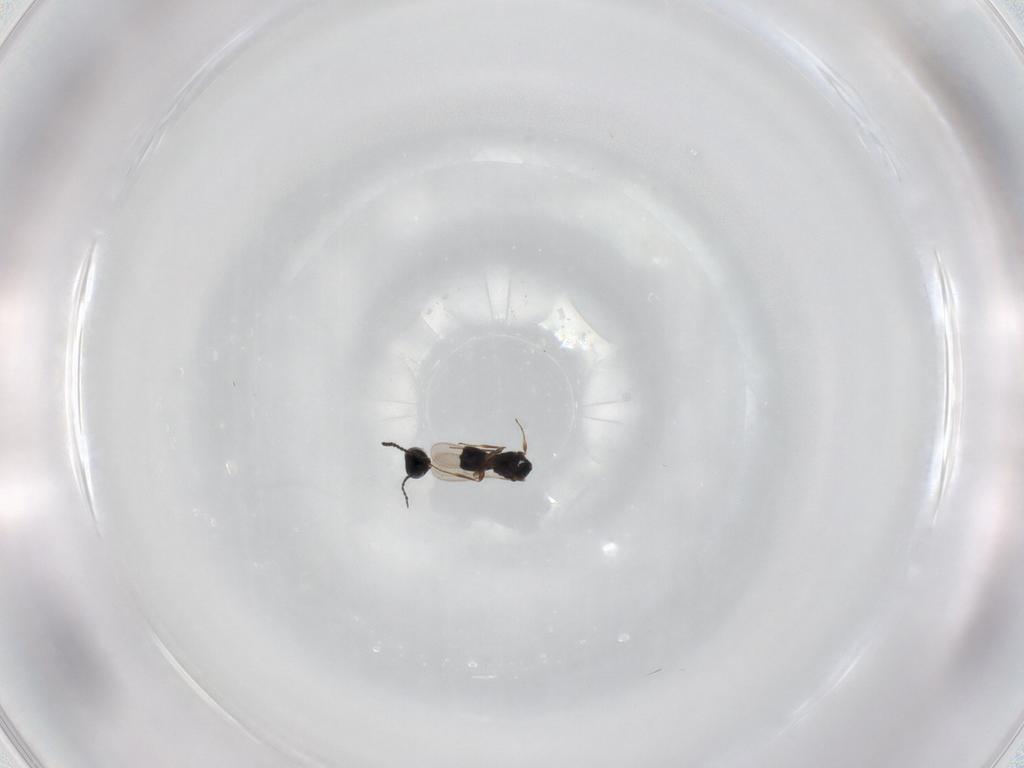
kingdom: Animalia
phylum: Arthropoda
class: Insecta
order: Hymenoptera
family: Scelionidae
